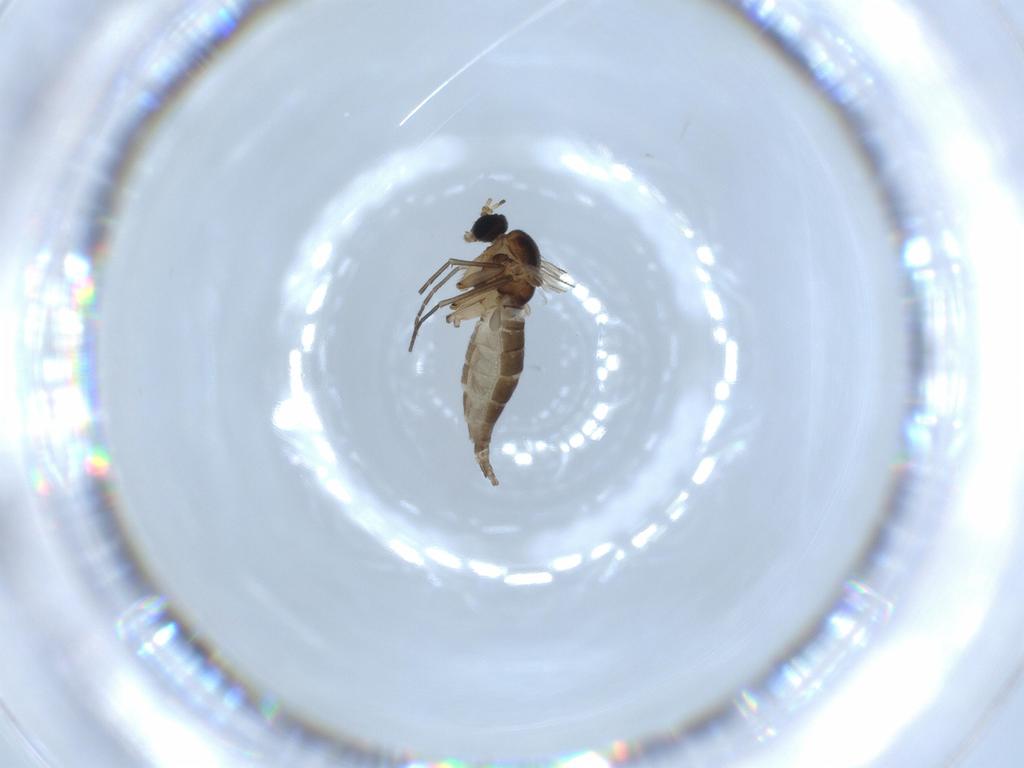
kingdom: Animalia
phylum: Arthropoda
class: Insecta
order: Diptera
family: Sciaridae
